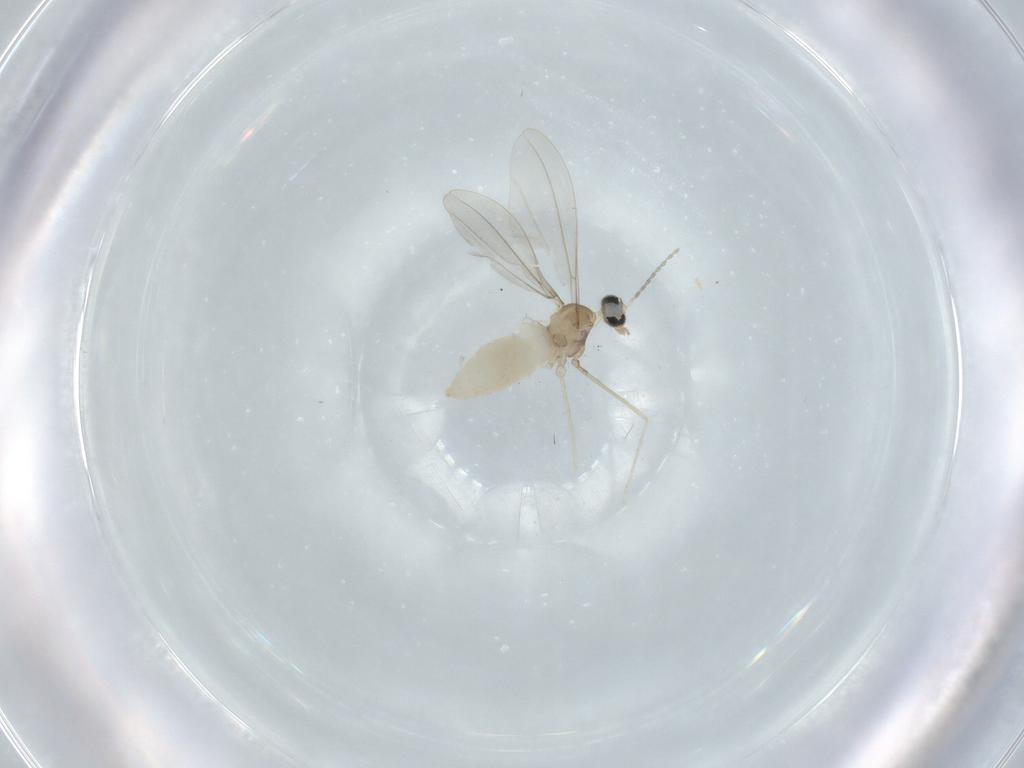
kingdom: Animalia
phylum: Arthropoda
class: Insecta
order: Diptera
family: Cecidomyiidae
